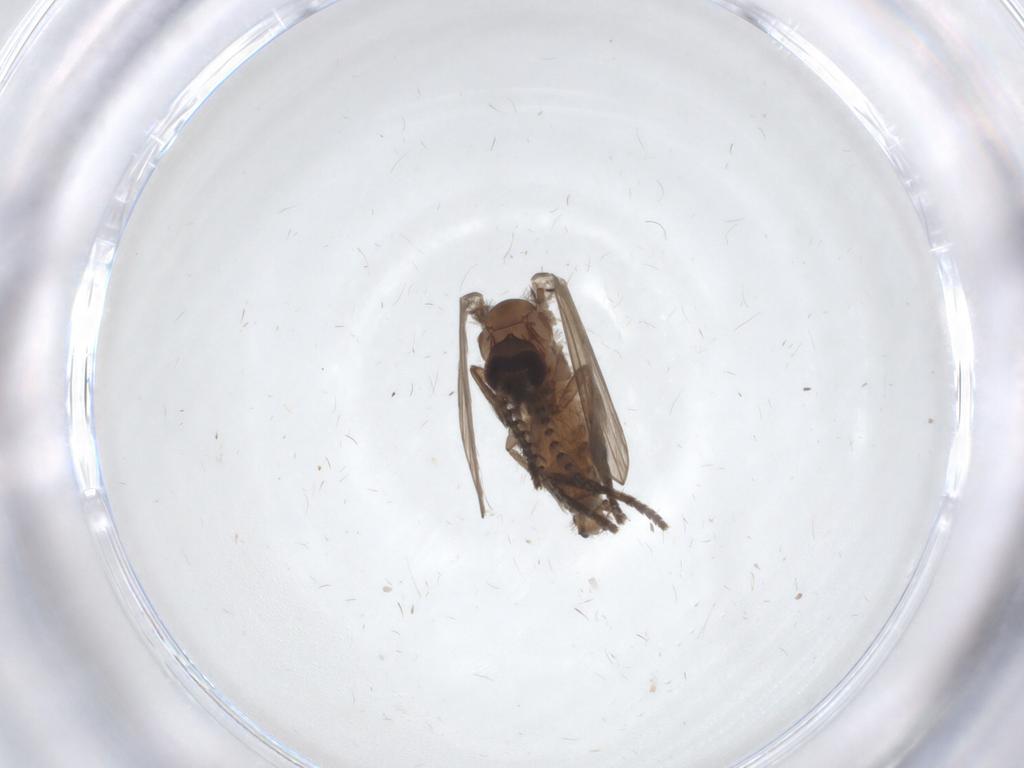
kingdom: Animalia
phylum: Arthropoda
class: Insecta
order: Diptera
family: Sciaridae
